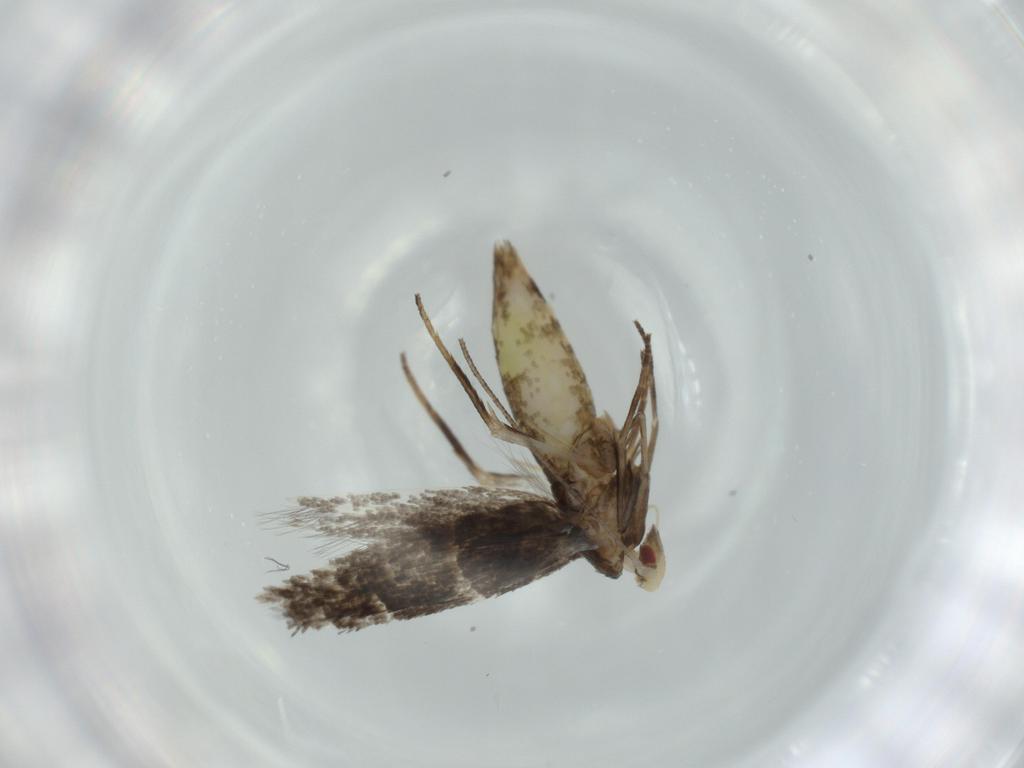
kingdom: Animalia
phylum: Arthropoda
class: Insecta
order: Lepidoptera
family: Cosmopterigidae
